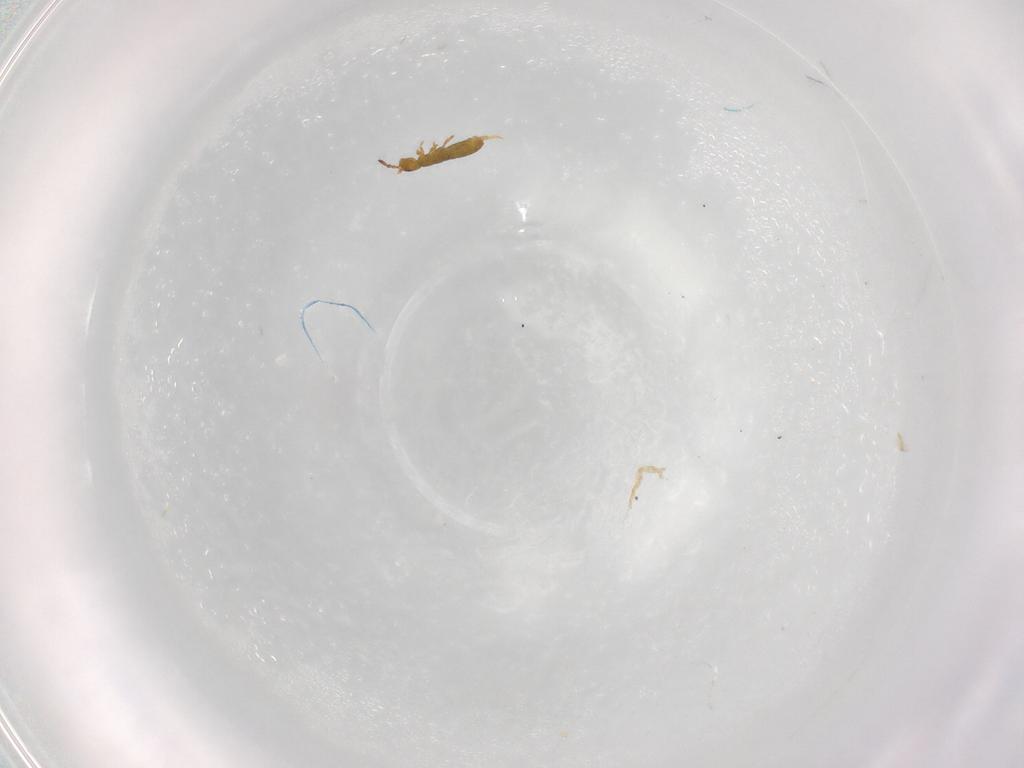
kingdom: Animalia
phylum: Arthropoda
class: Collembola
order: Entomobryomorpha
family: Isotomidae
